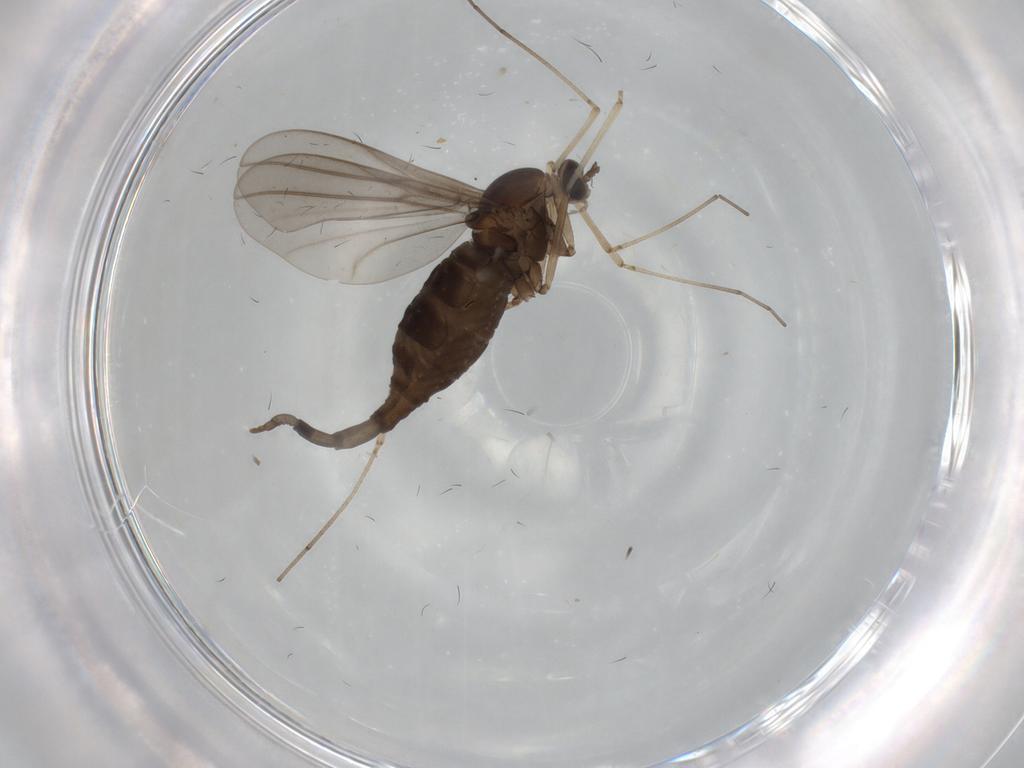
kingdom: Animalia
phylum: Arthropoda
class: Insecta
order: Diptera
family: Cecidomyiidae
